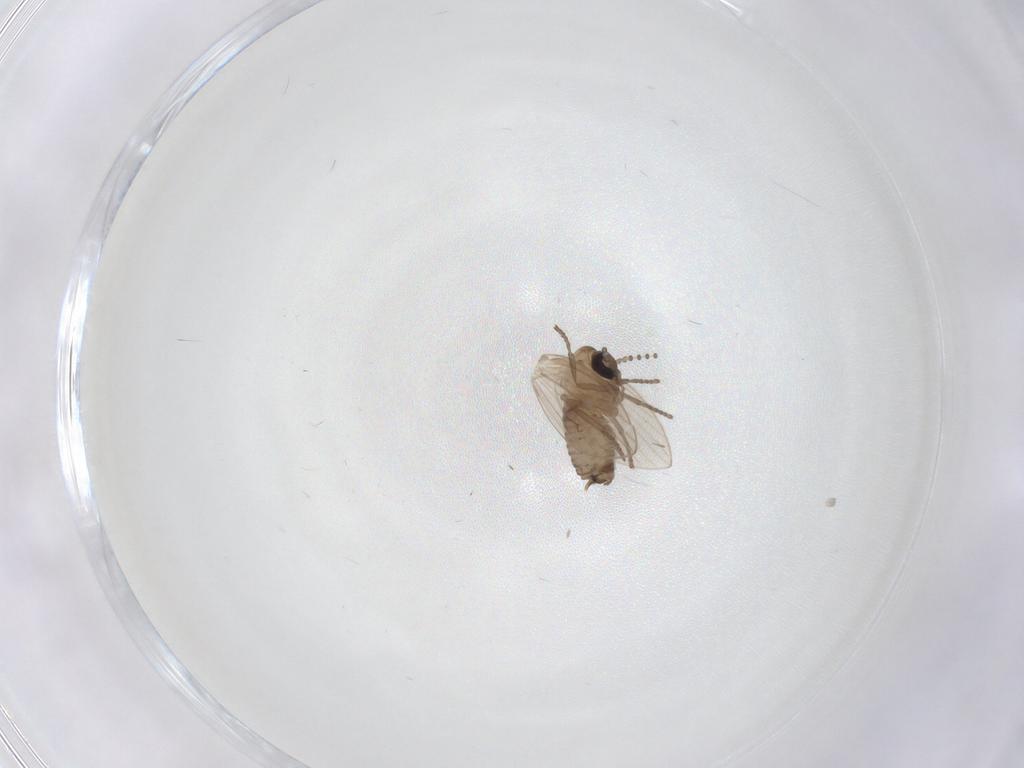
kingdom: Animalia
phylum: Arthropoda
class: Insecta
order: Diptera
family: Psychodidae
